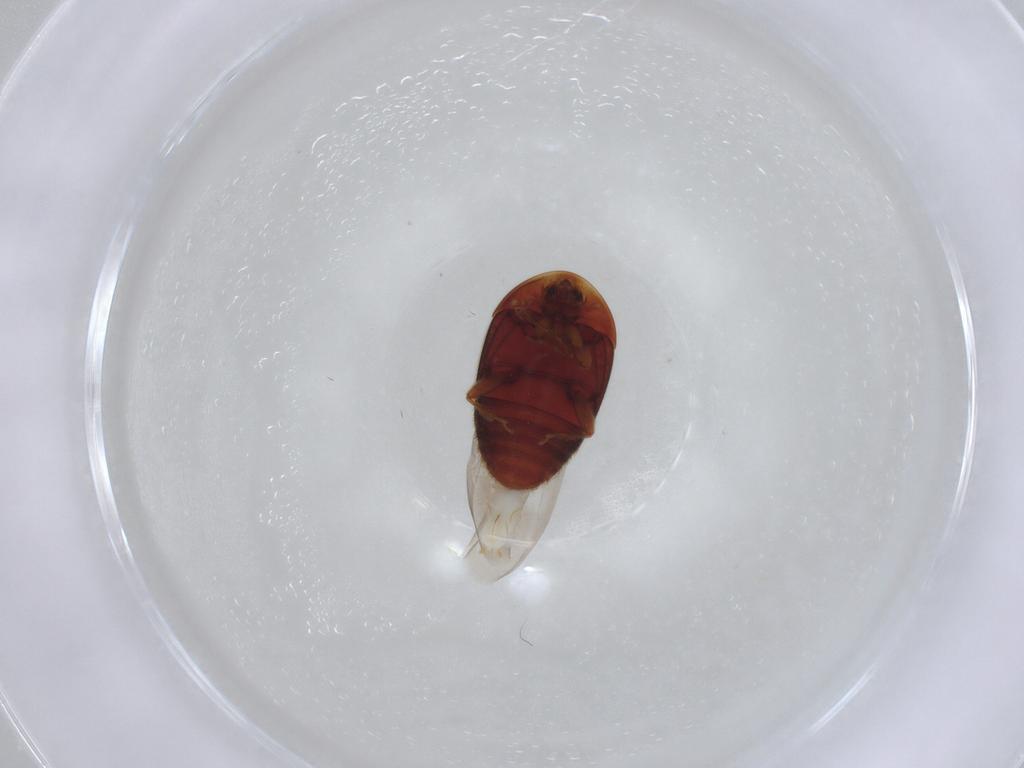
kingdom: Animalia
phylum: Arthropoda
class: Insecta
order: Coleoptera
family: Corylophidae
